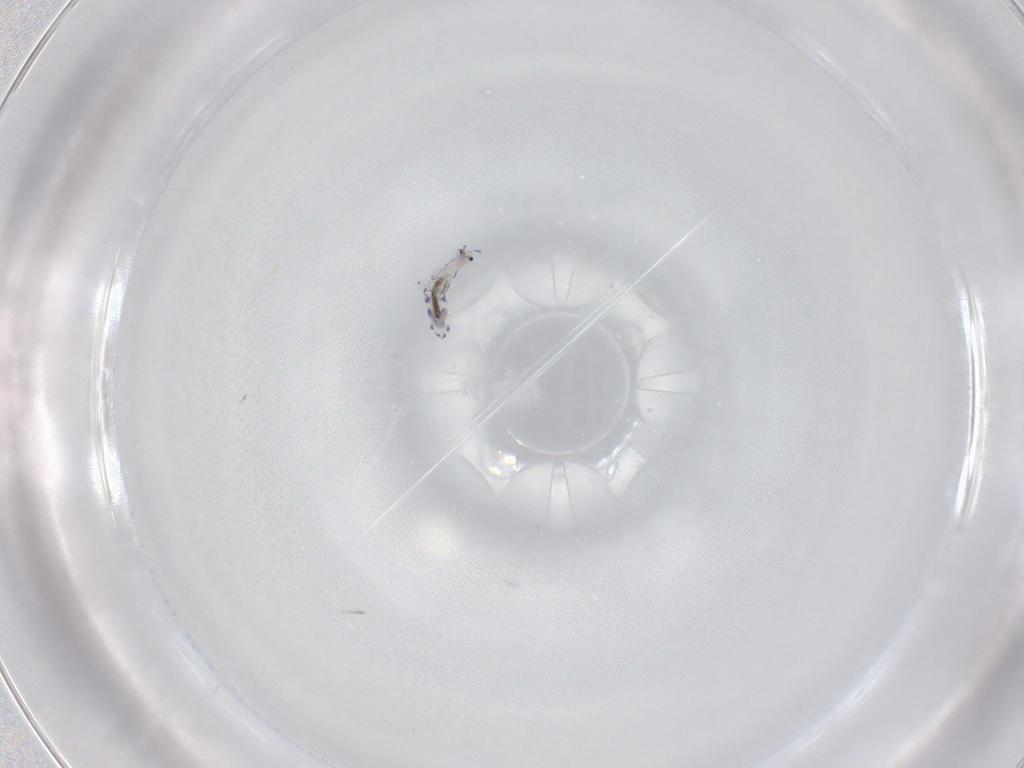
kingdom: Animalia
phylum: Arthropoda
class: Collembola
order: Entomobryomorpha
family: Entomobryidae
